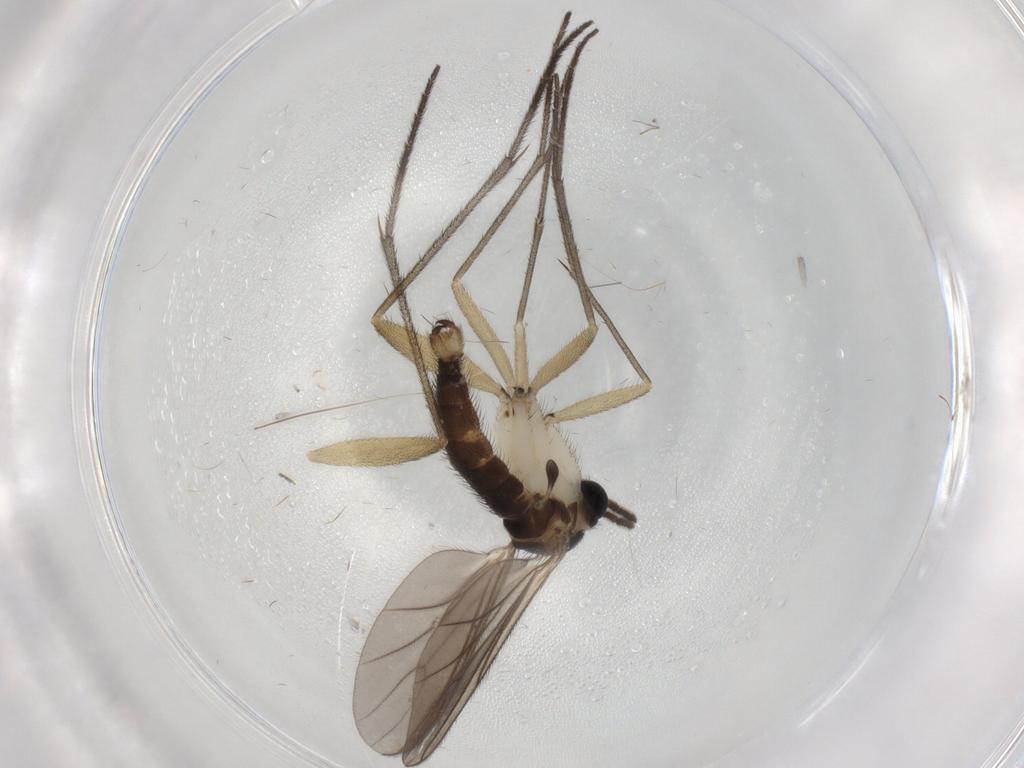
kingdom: Animalia
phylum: Arthropoda
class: Insecta
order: Diptera
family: Sciaridae
